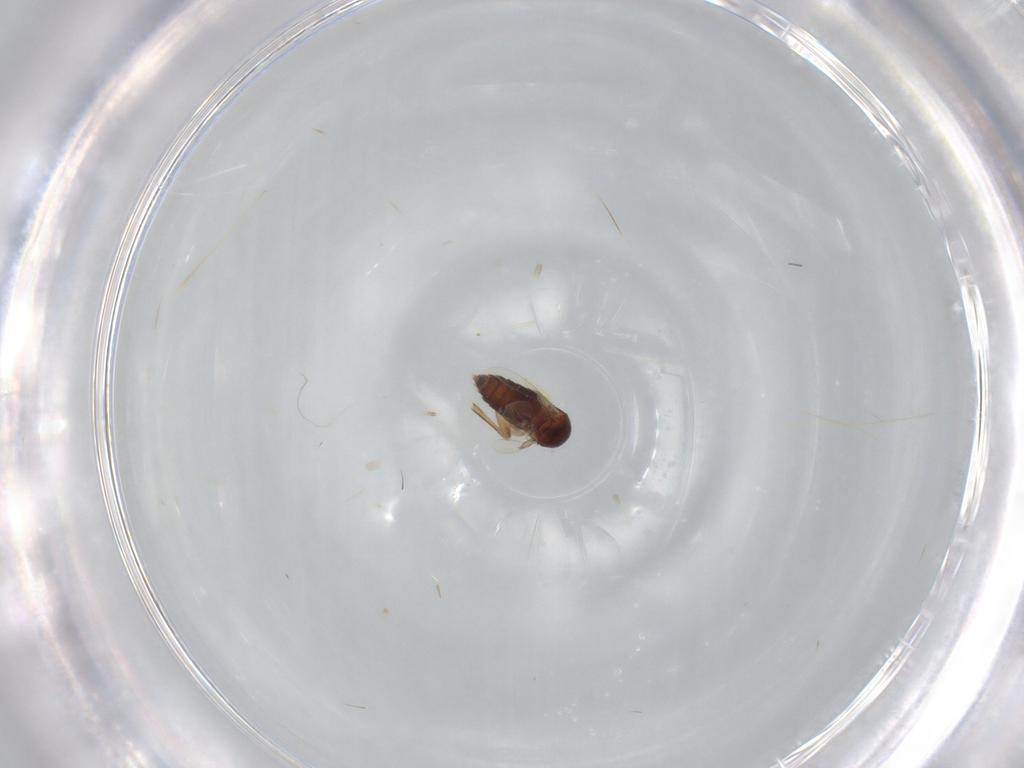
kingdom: Animalia
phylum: Arthropoda
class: Insecta
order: Diptera
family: Phoridae
